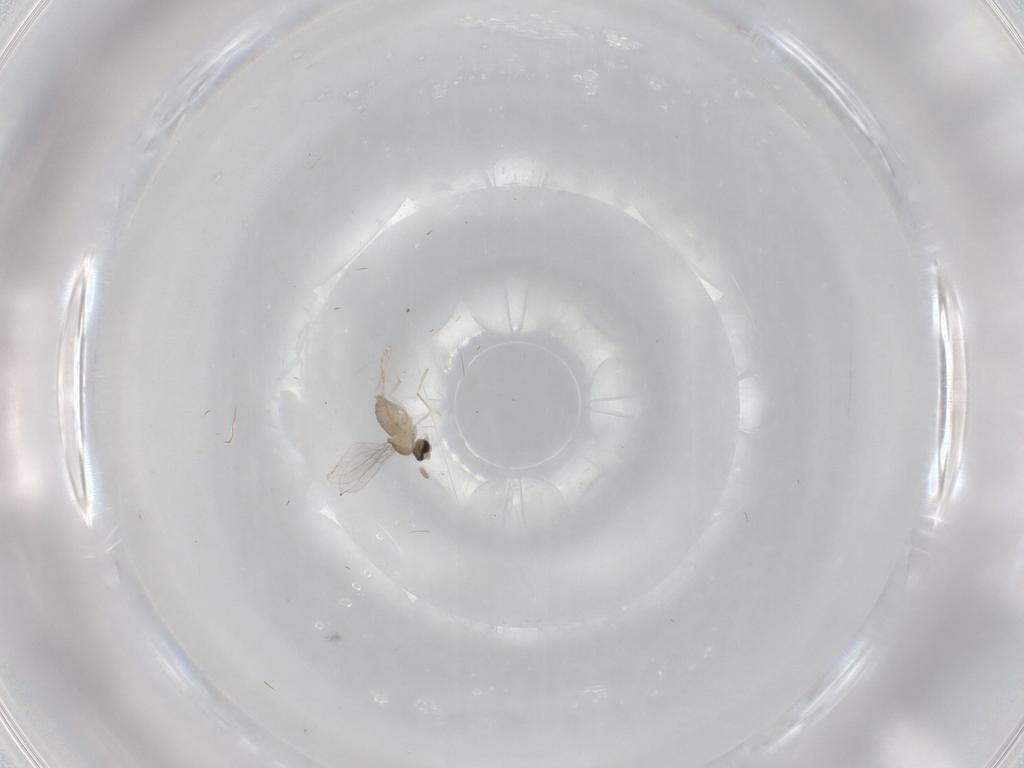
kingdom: Animalia
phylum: Arthropoda
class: Insecta
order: Diptera
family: Cecidomyiidae
